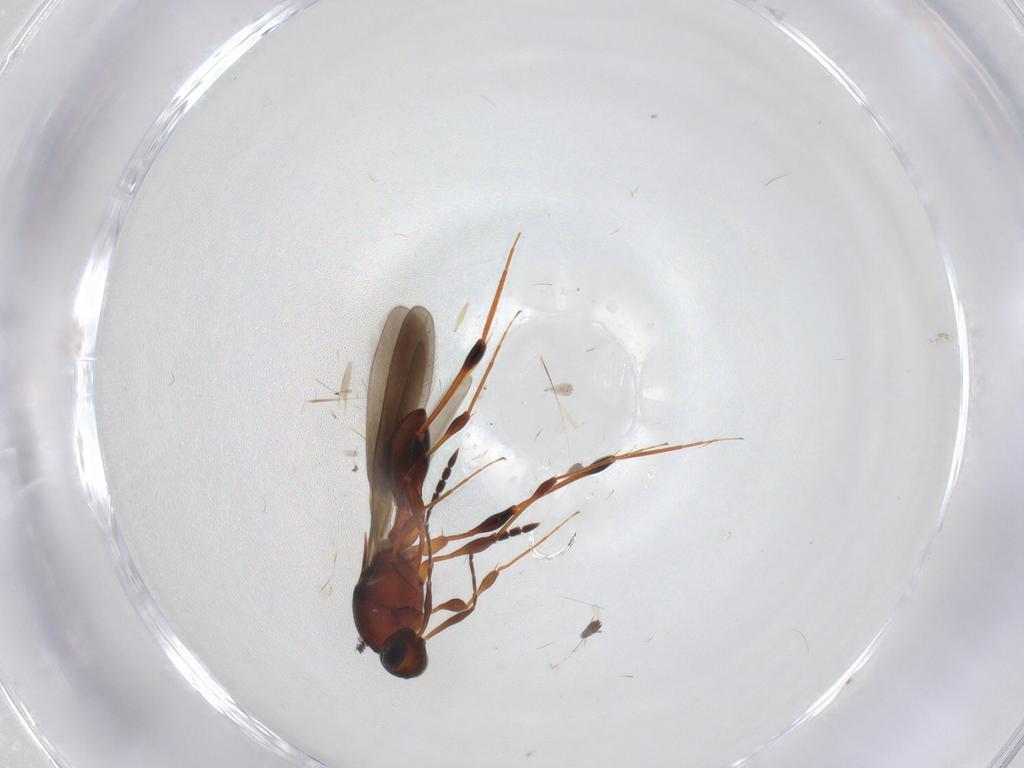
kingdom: Animalia
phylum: Arthropoda
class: Insecta
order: Hymenoptera
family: Platygastridae
